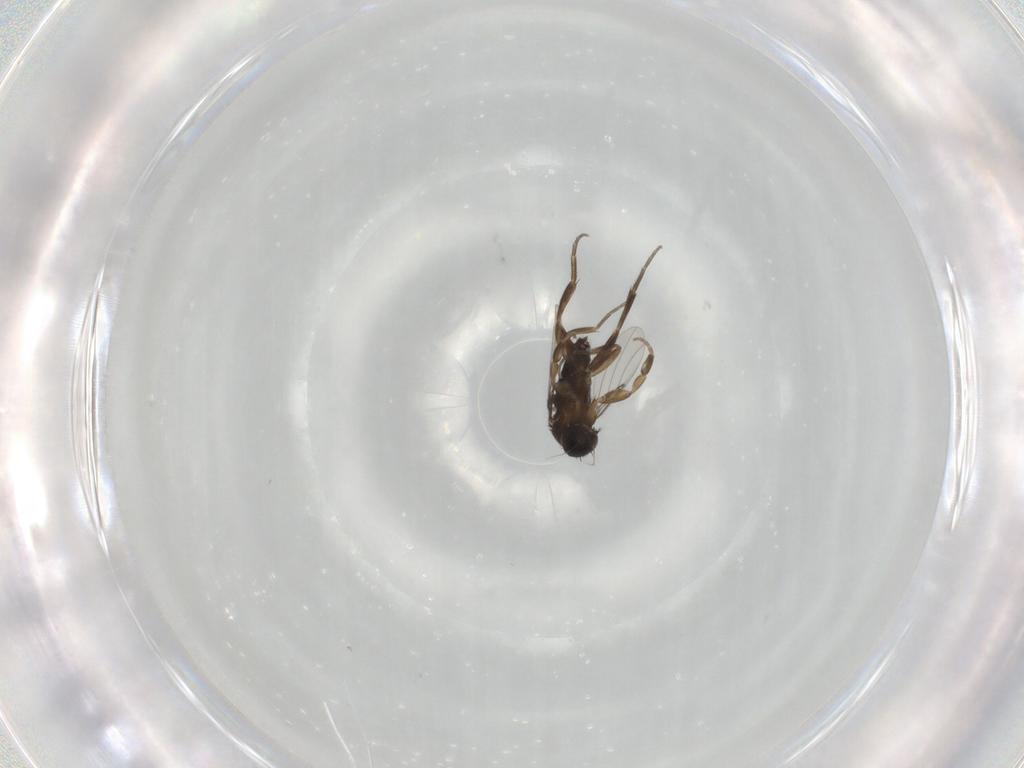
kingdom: Animalia
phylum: Arthropoda
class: Insecta
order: Diptera
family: Phoridae
